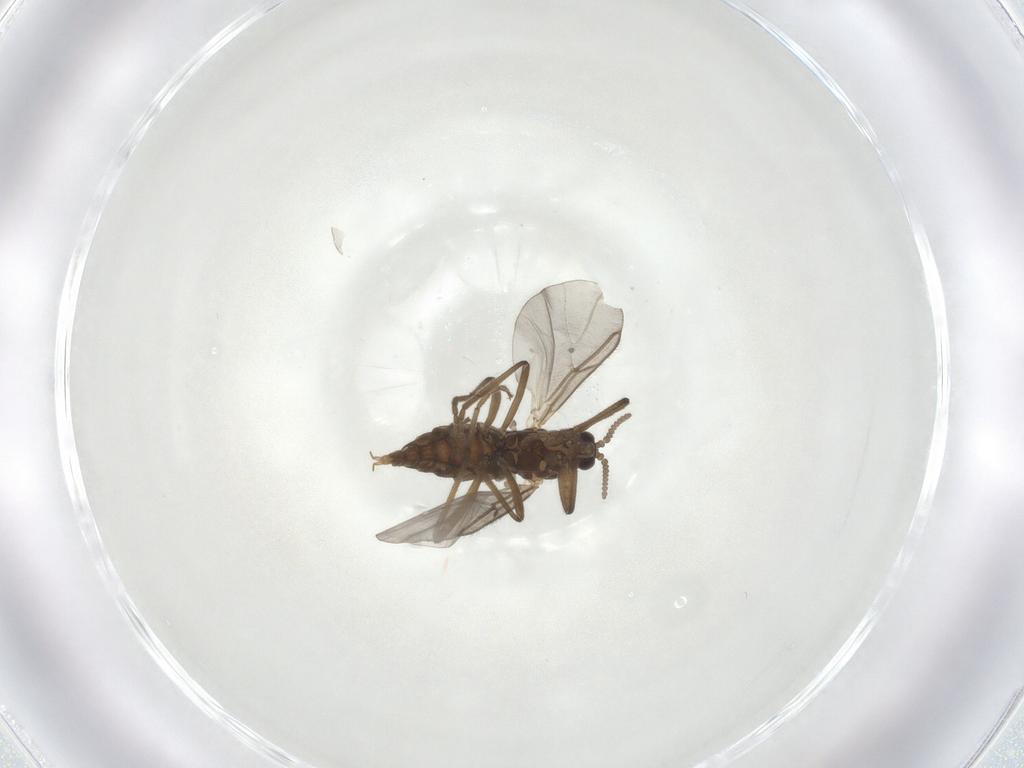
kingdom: Animalia
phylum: Arthropoda
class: Insecta
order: Diptera
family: Cecidomyiidae
